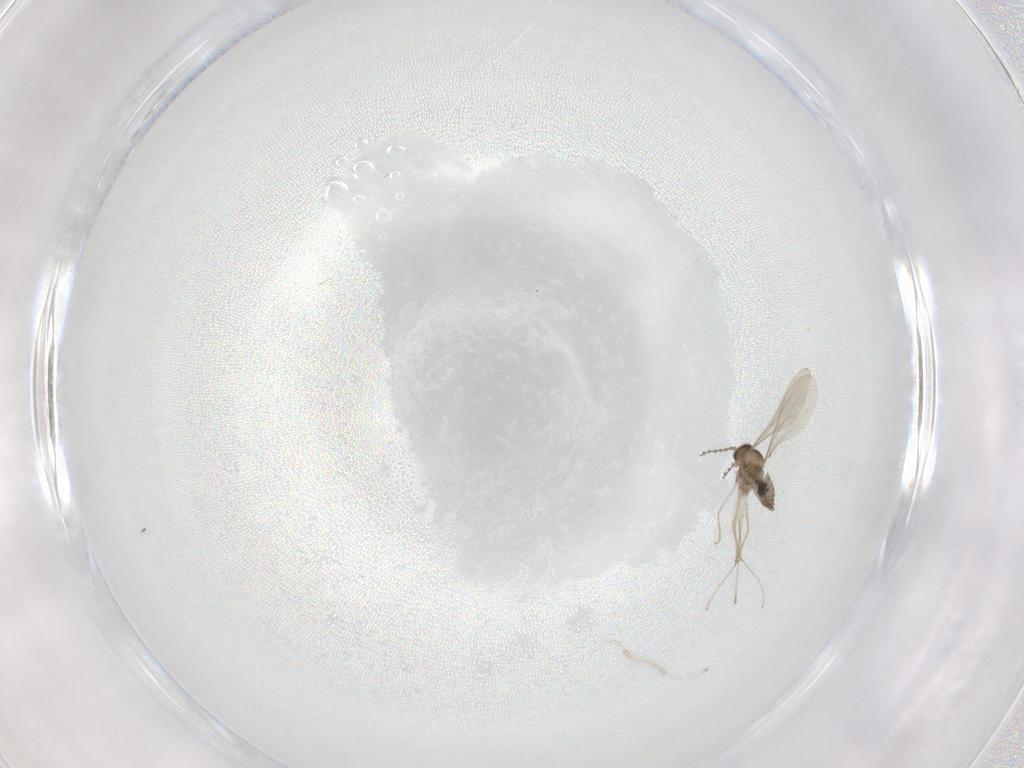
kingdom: Animalia
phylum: Arthropoda
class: Insecta
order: Diptera
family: Cecidomyiidae
